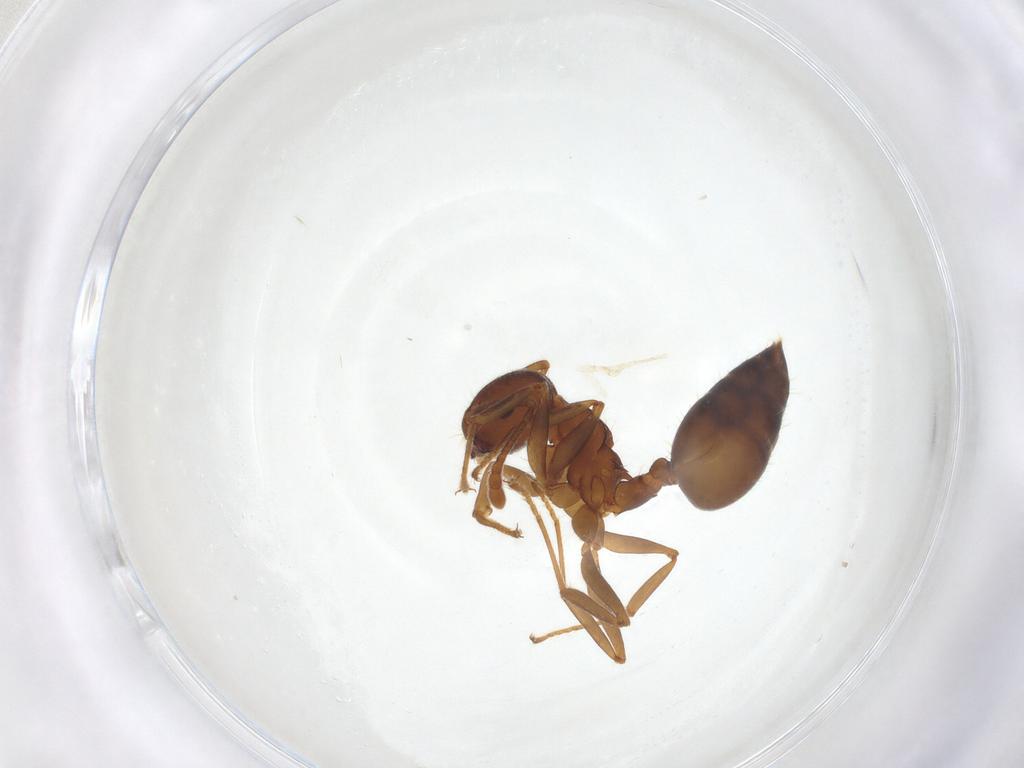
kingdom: Animalia
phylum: Arthropoda
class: Insecta
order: Hymenoptera
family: Formicidae
